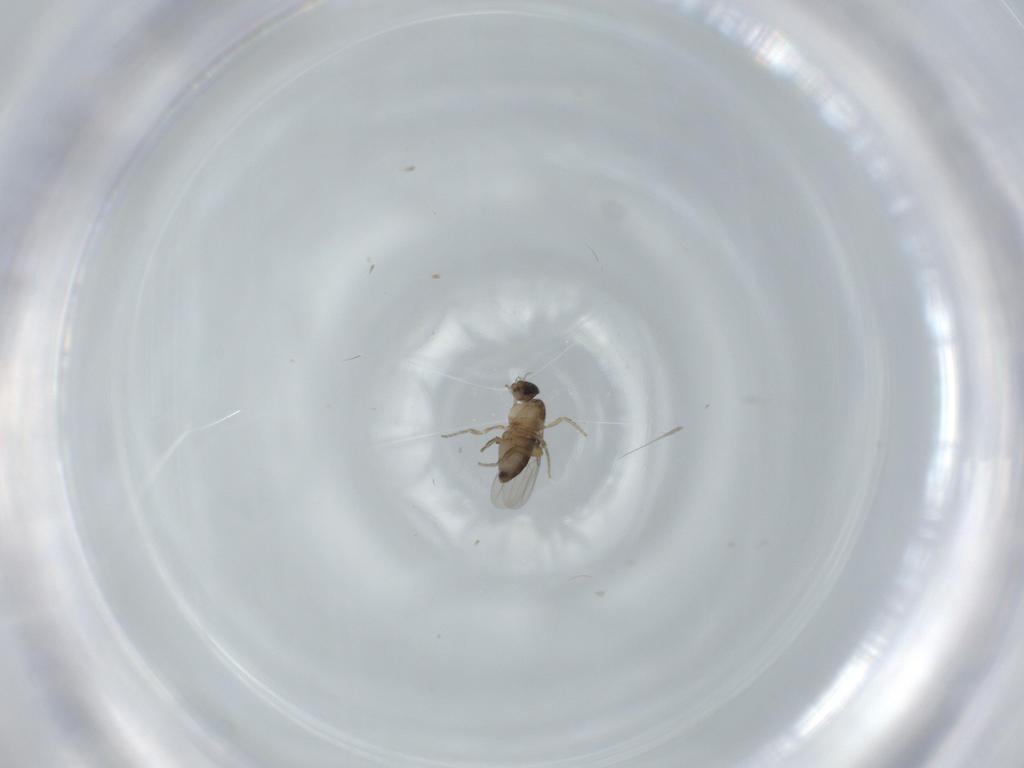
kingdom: Animalia
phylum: Arthropoda
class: Insecta
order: Diptera
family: Phoridae
